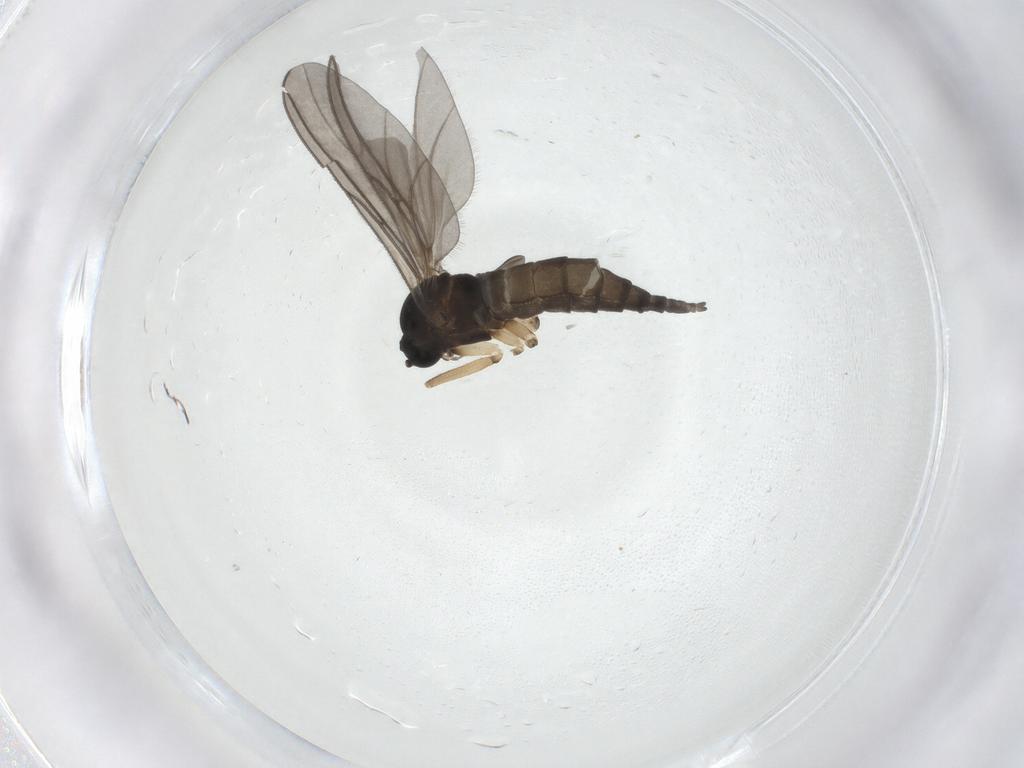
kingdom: Animalia
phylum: Arthropoda
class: Insecta
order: Diptera
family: Sciaridae
